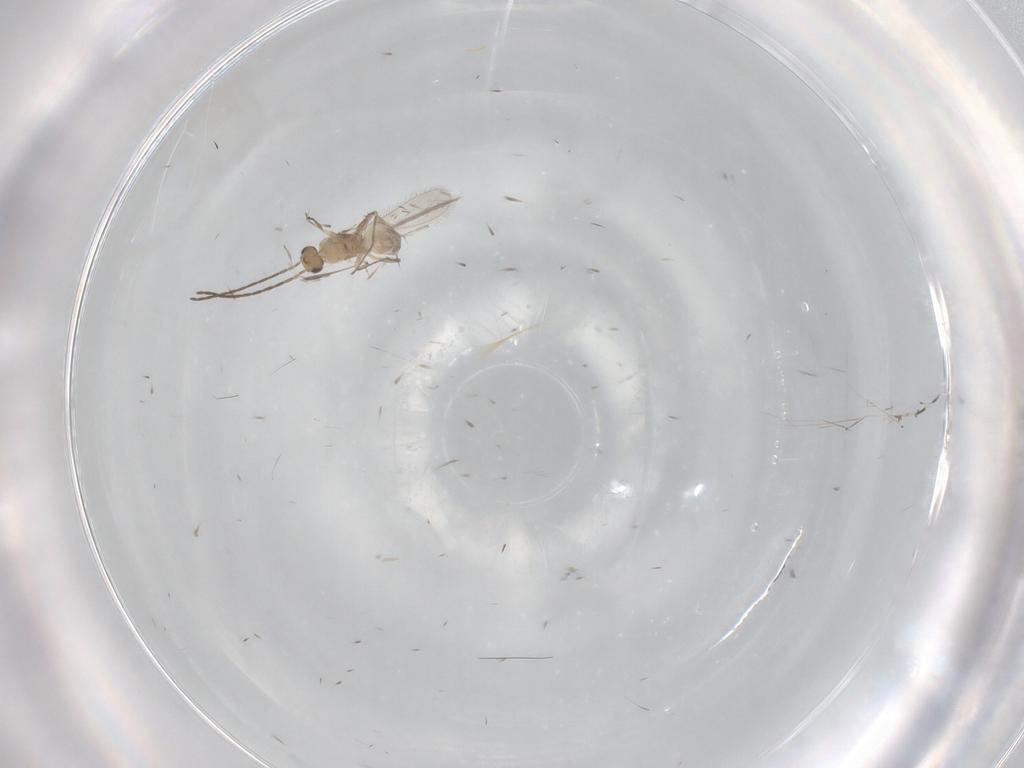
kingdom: Animalia
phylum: Arthropoda
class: Insecta
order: Hymenoptera
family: Mymaridae
